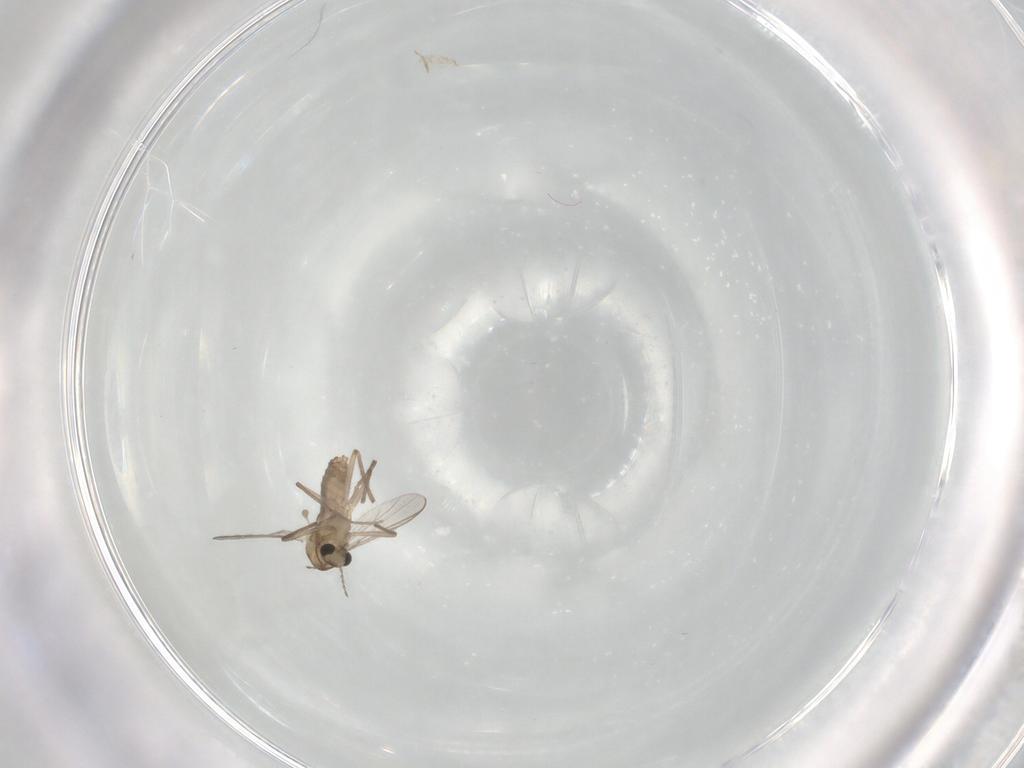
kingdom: Animalia
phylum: Arthropoda
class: Insecta
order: Diptera
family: Chironomidae
